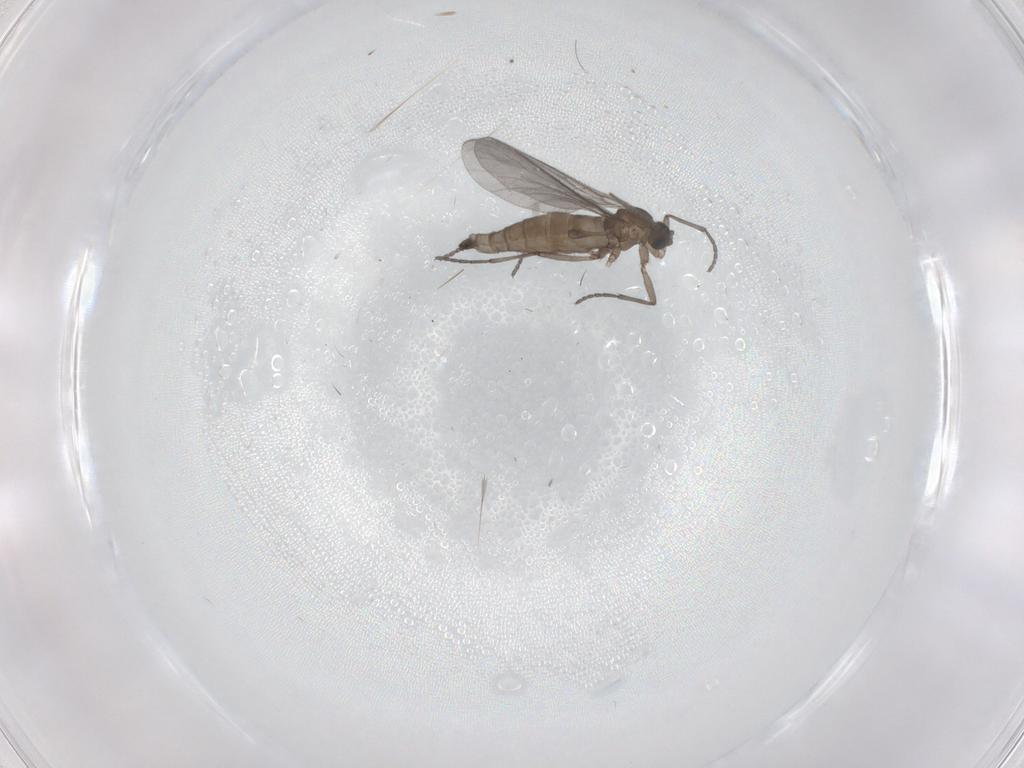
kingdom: Animalia
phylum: Arthropoda
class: Insecta
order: Diptera
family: Sciaridae
